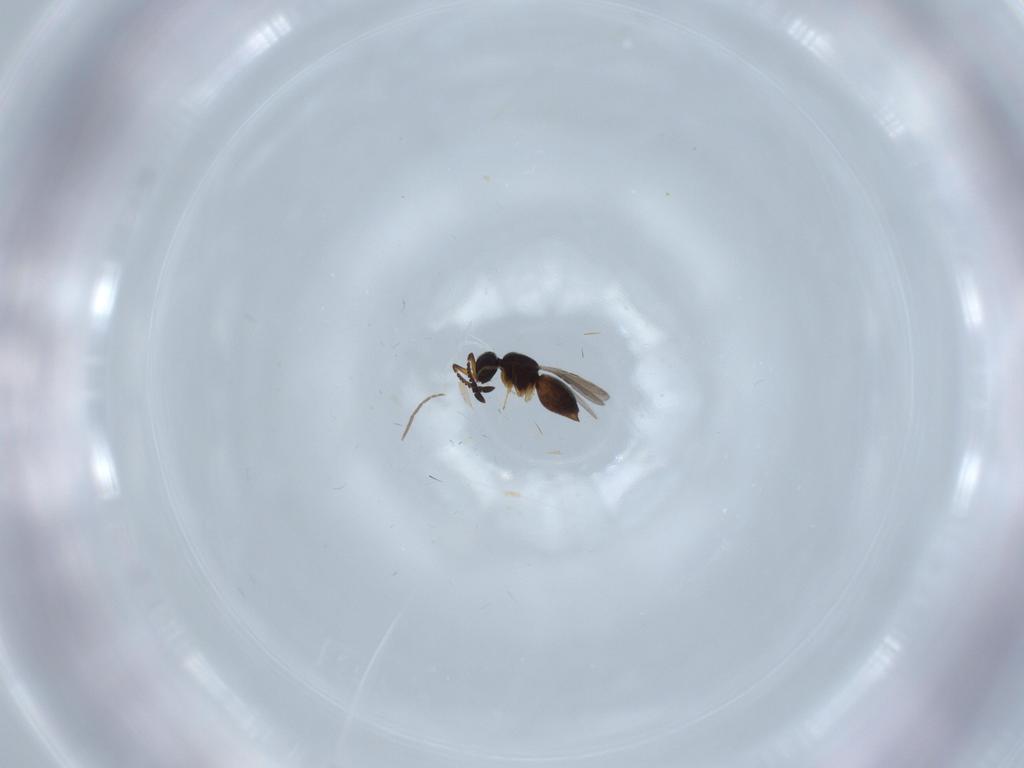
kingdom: Animalia
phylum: Arthropoda
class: Insecta
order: Hymenoptera
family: Ceraphronidae
